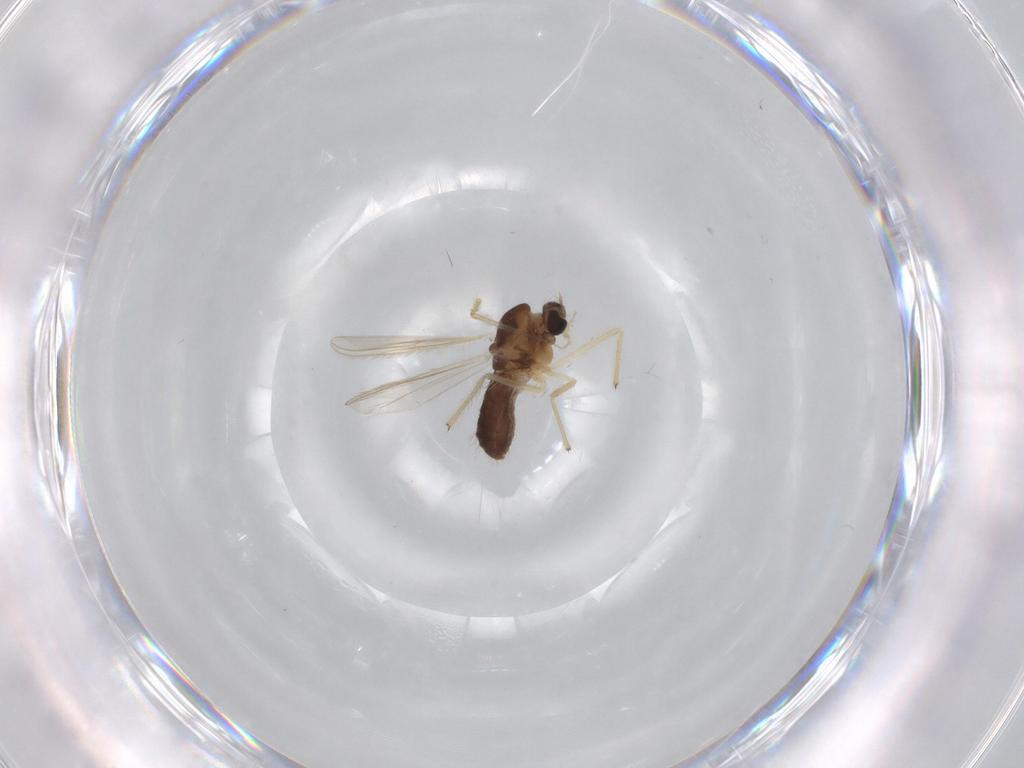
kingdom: Animalia
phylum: Arthropoda
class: Insecta
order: Diptera
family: Chironomidae
